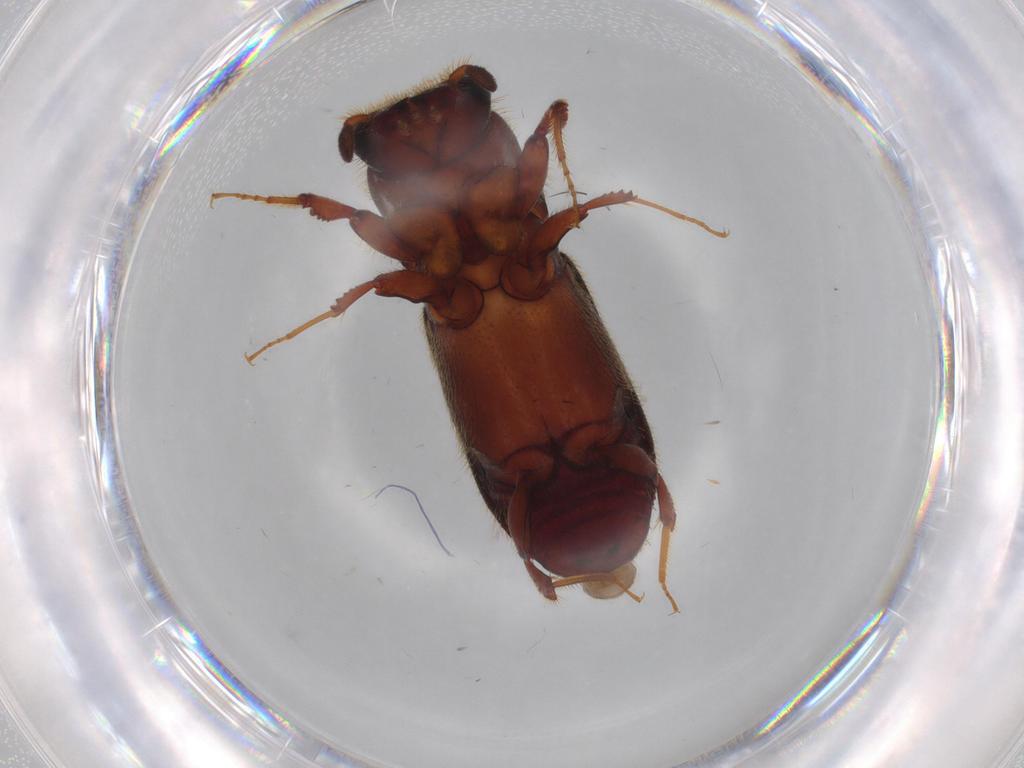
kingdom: Animalia
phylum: Arthropoda
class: Insecta
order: Coleoptera
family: Curculionidae
